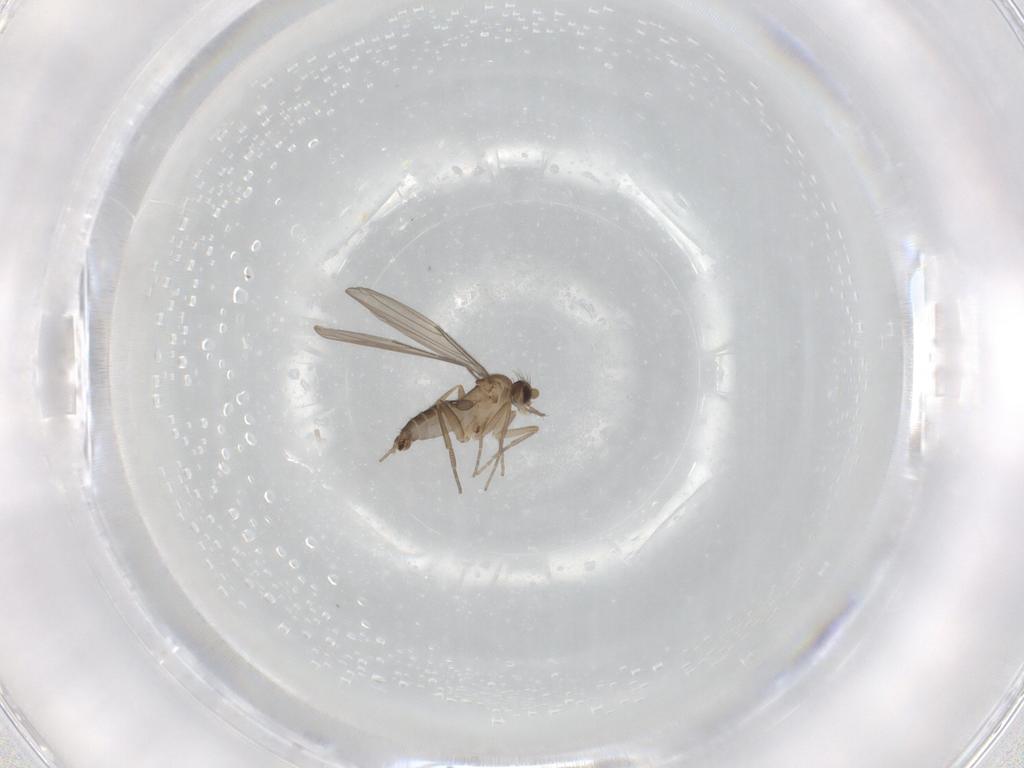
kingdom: Animalia
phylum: Arthropoda
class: Insecta
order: Diptera
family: Chironomidae
